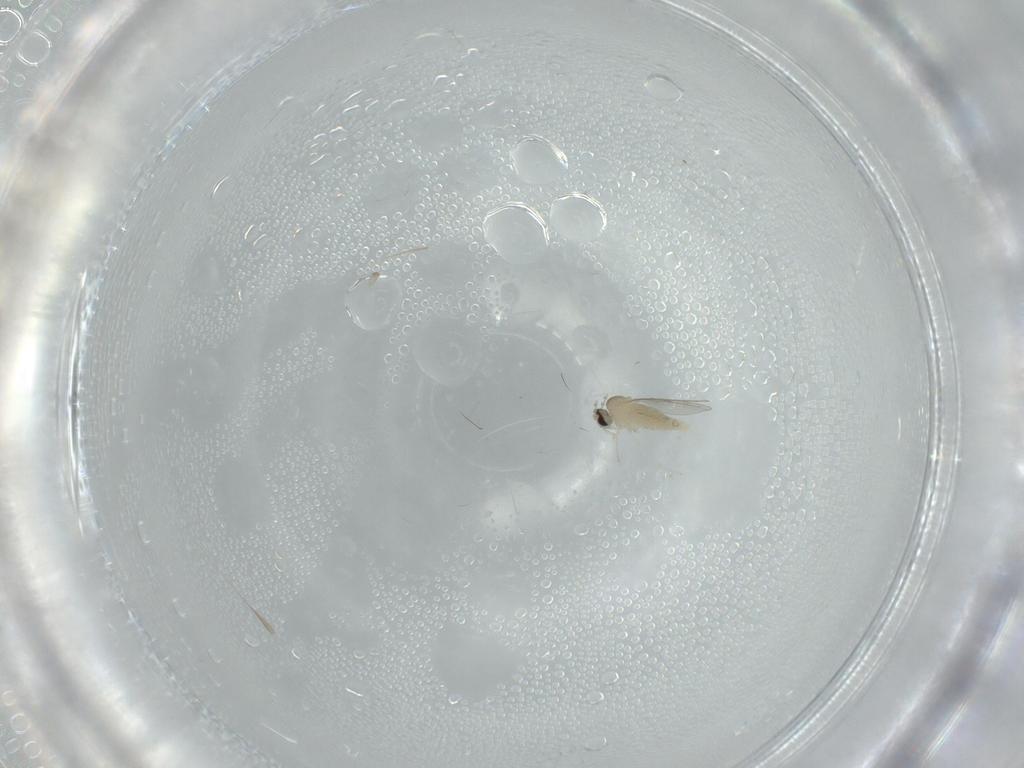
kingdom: Animalia
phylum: Arthropoda
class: Insecta
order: Diptera
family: Cecidomyiidae
